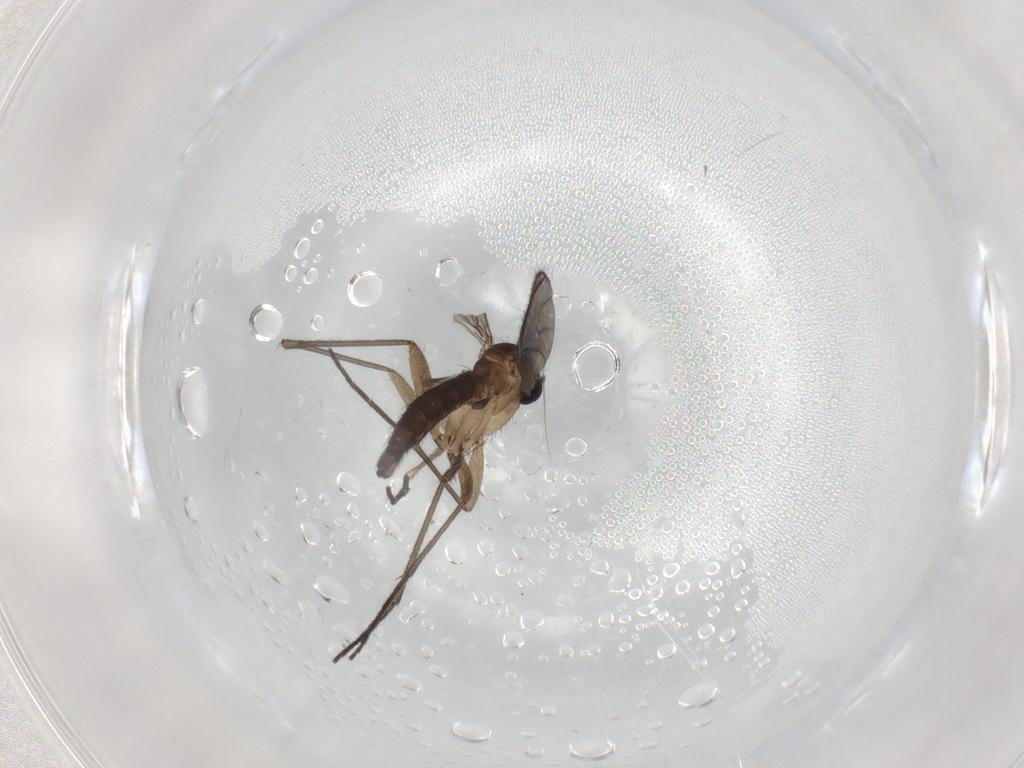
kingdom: Animalia
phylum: Arthropoda
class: Insecta
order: Diptera
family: Sciaridae
